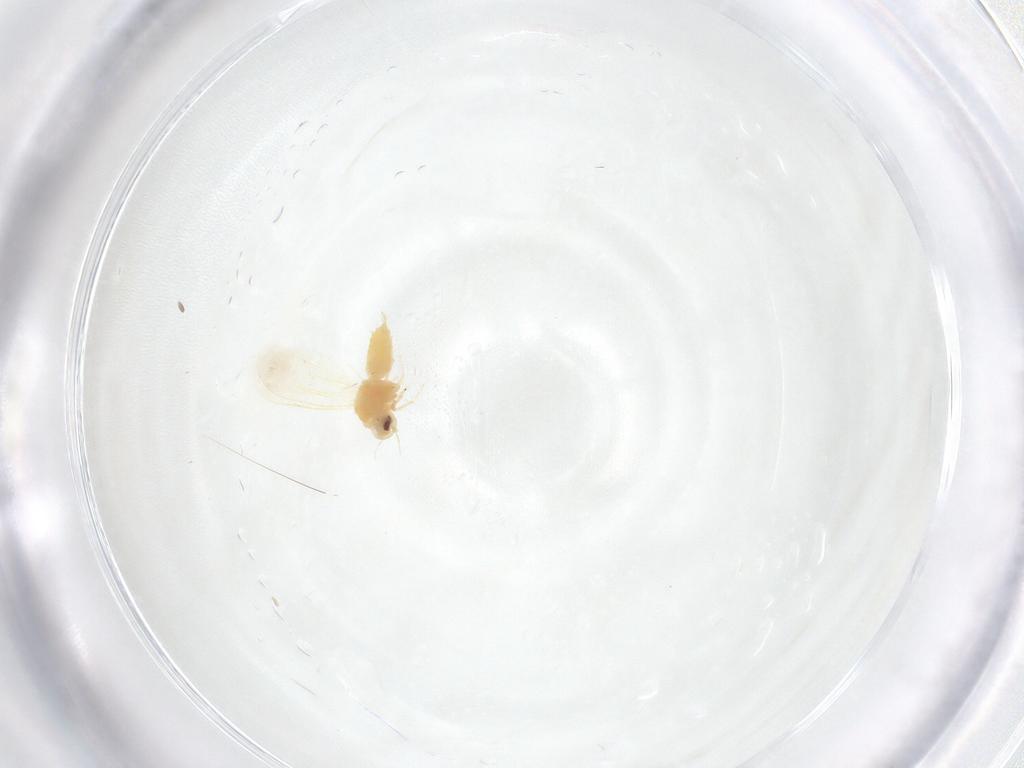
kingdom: Animalia
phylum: Arthropoda
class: Insecta
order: Hemiptera
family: Aleyrodidae
